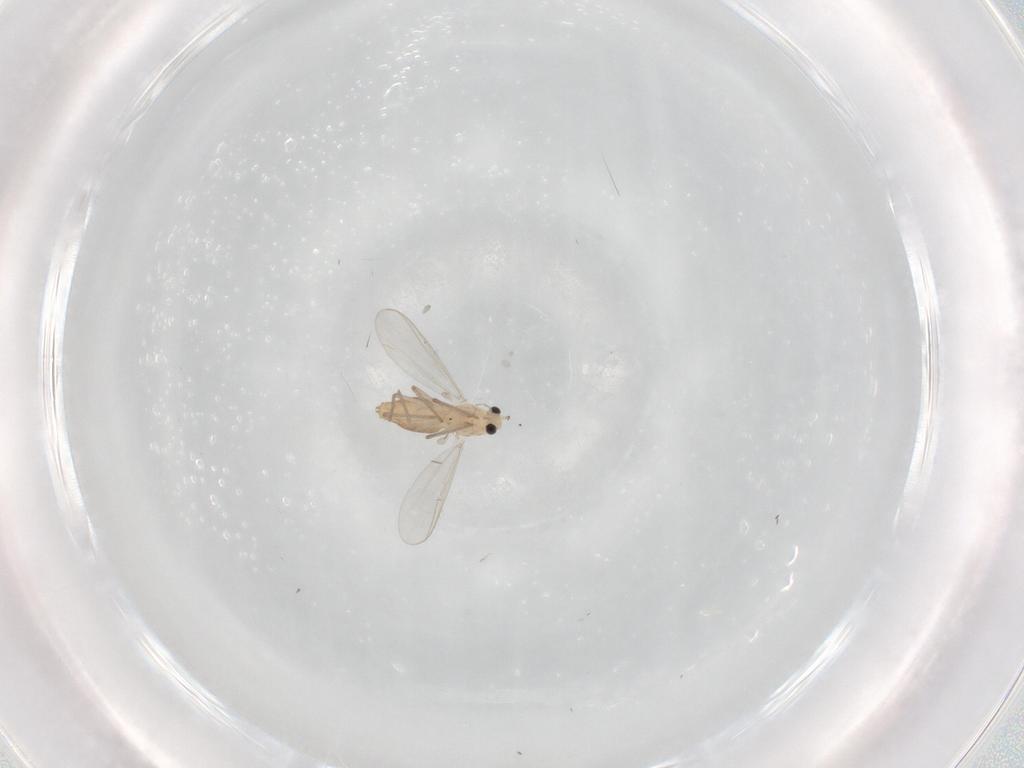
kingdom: Animalia
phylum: Arthropoda
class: Insecta
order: Diptera
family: Chironomidae
